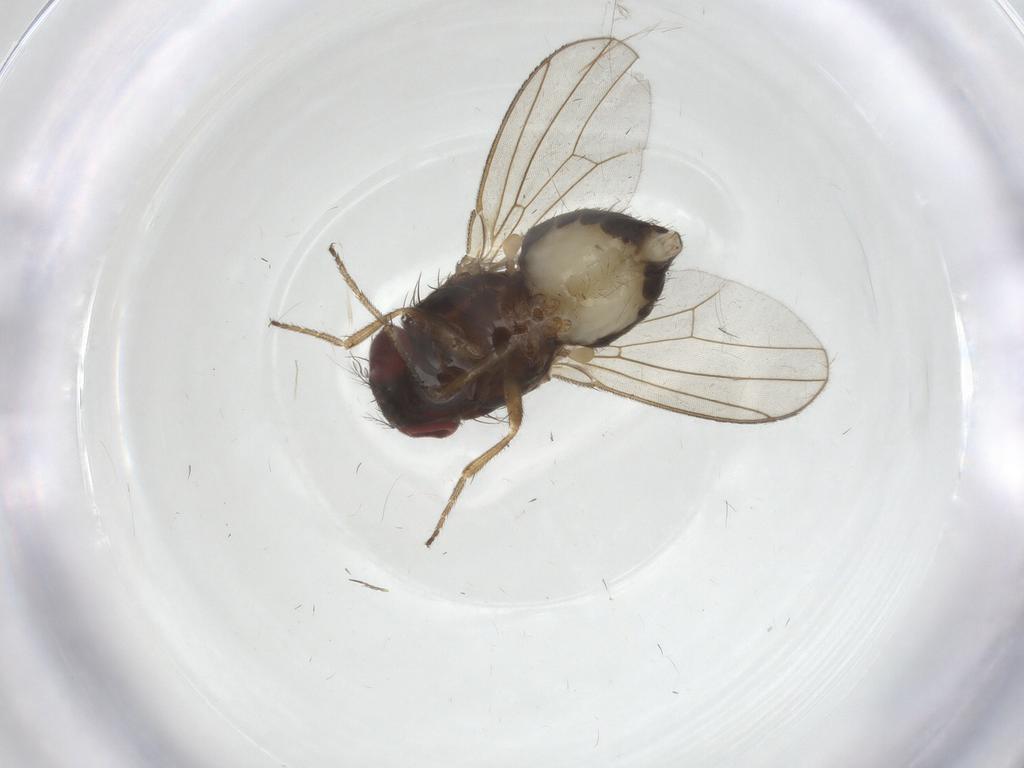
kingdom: Animalia
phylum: Arthropoda
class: Insecta
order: Diptera
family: Drosophilidae
